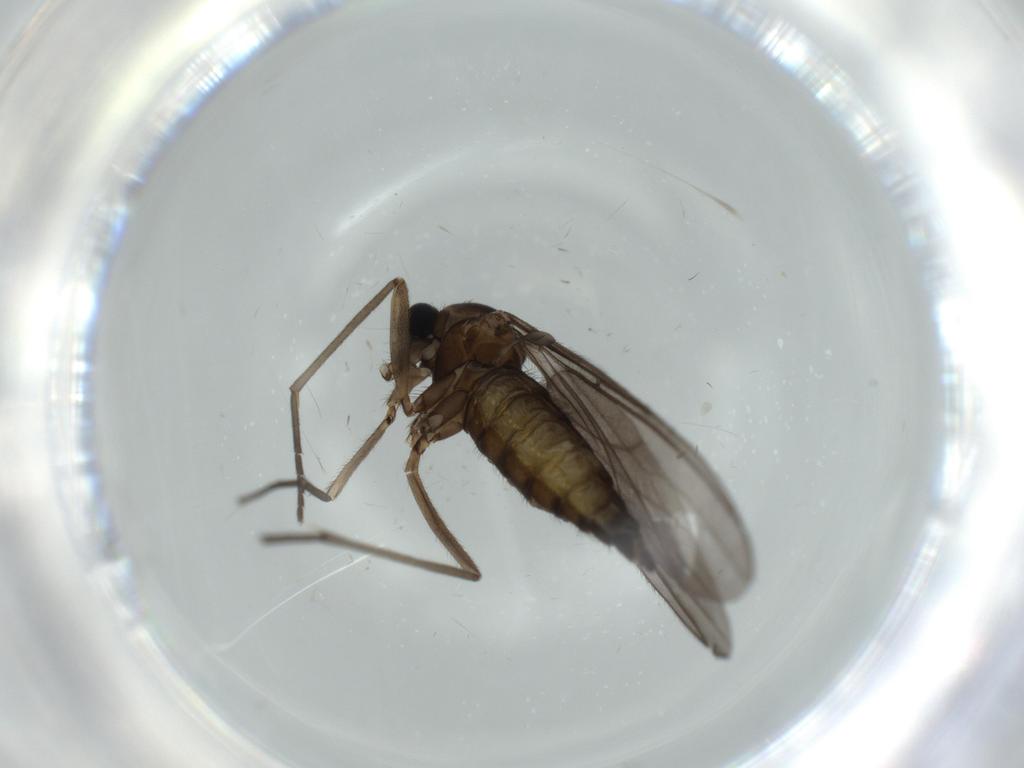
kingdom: Animalia
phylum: Arthropoda
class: Insecta
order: Diptera
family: Sciaridae
